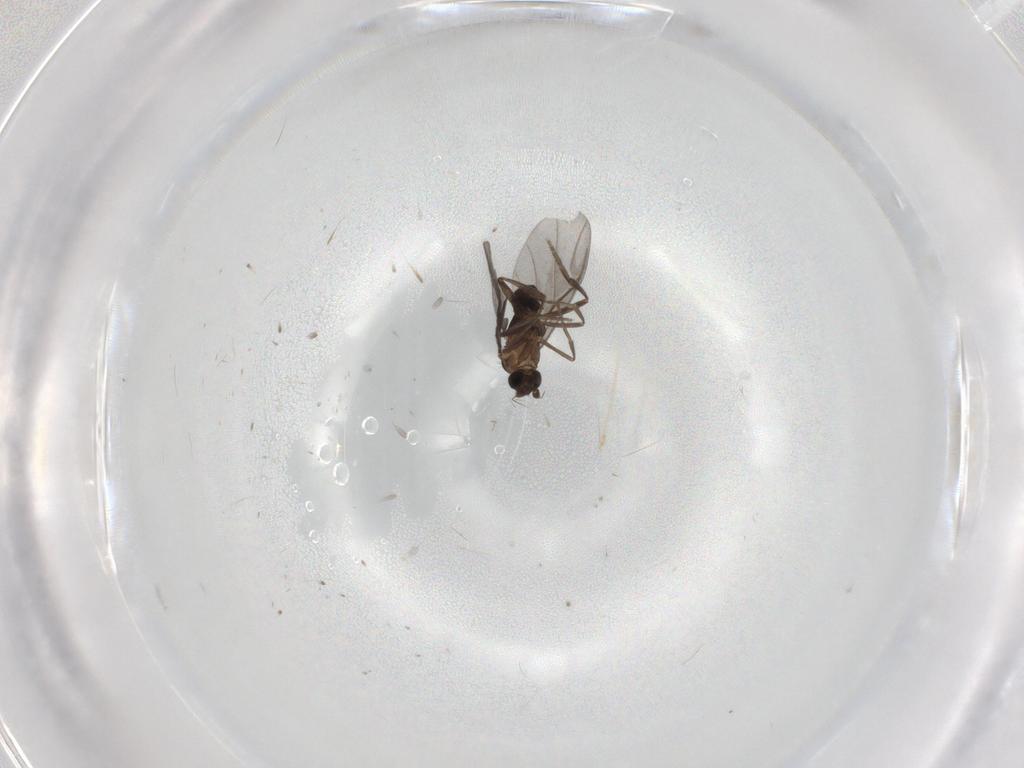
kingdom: Animalia
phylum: Arthropoda
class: Insecta
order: Diptera
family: Phoridae
